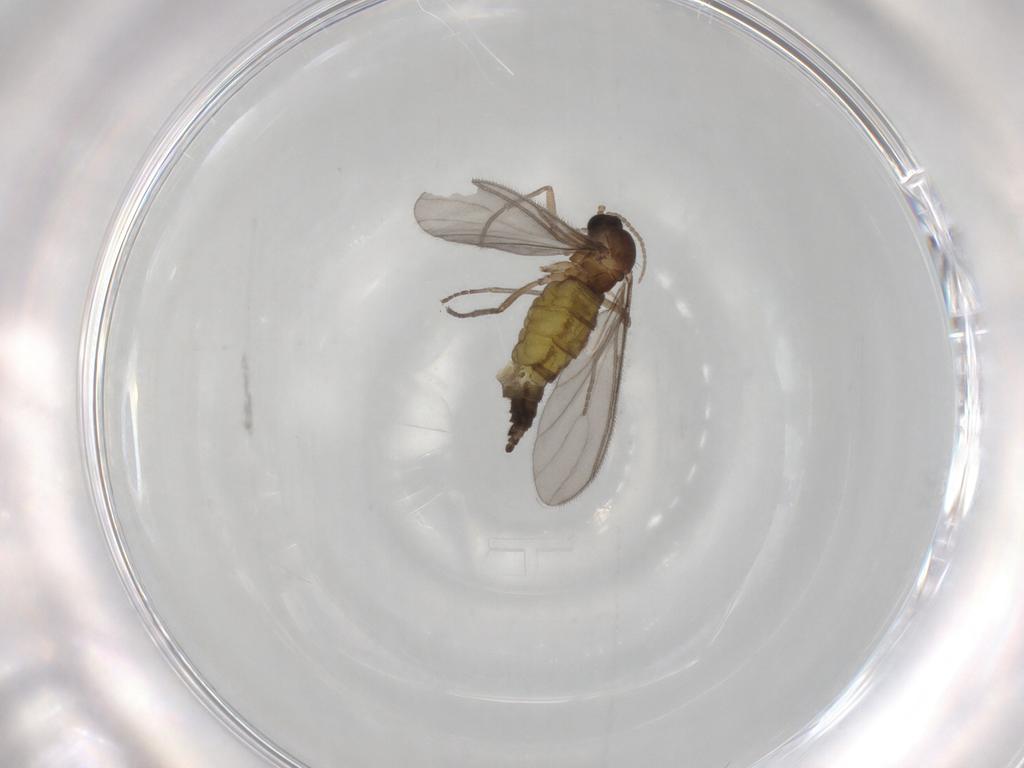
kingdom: Animalia
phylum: Arthropoda
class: Insecta
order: Diptera
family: Sciaridae
